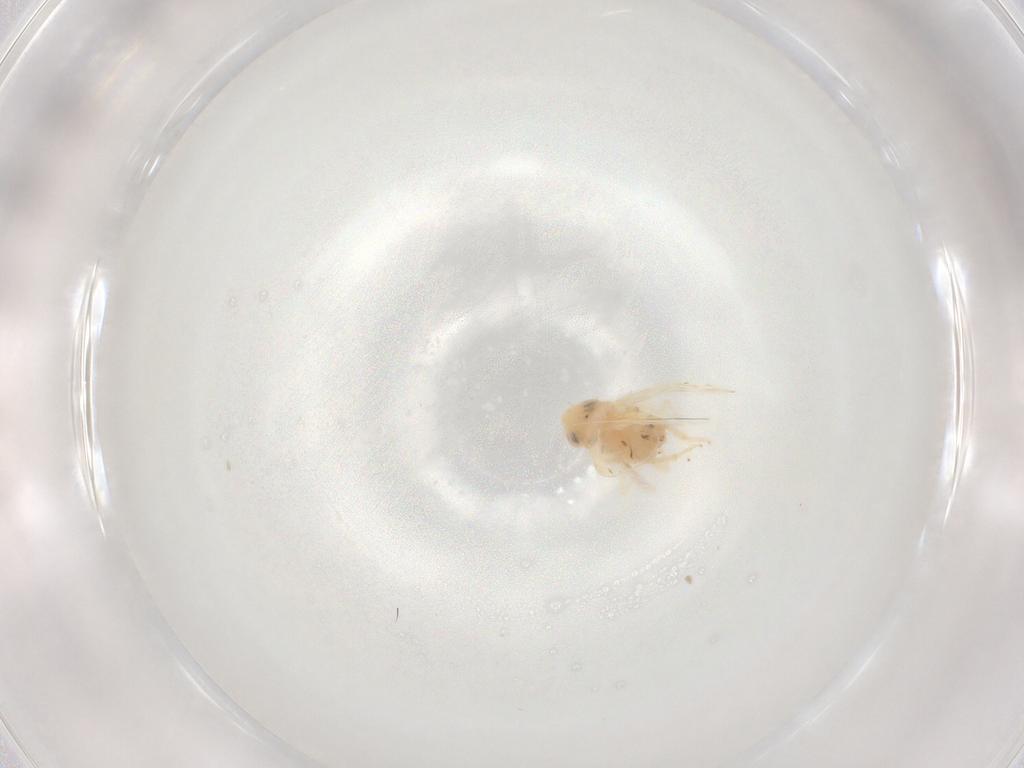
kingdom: Animalia
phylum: Arthropoda
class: Insecta
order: Hemiptera
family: Cicadellidae
